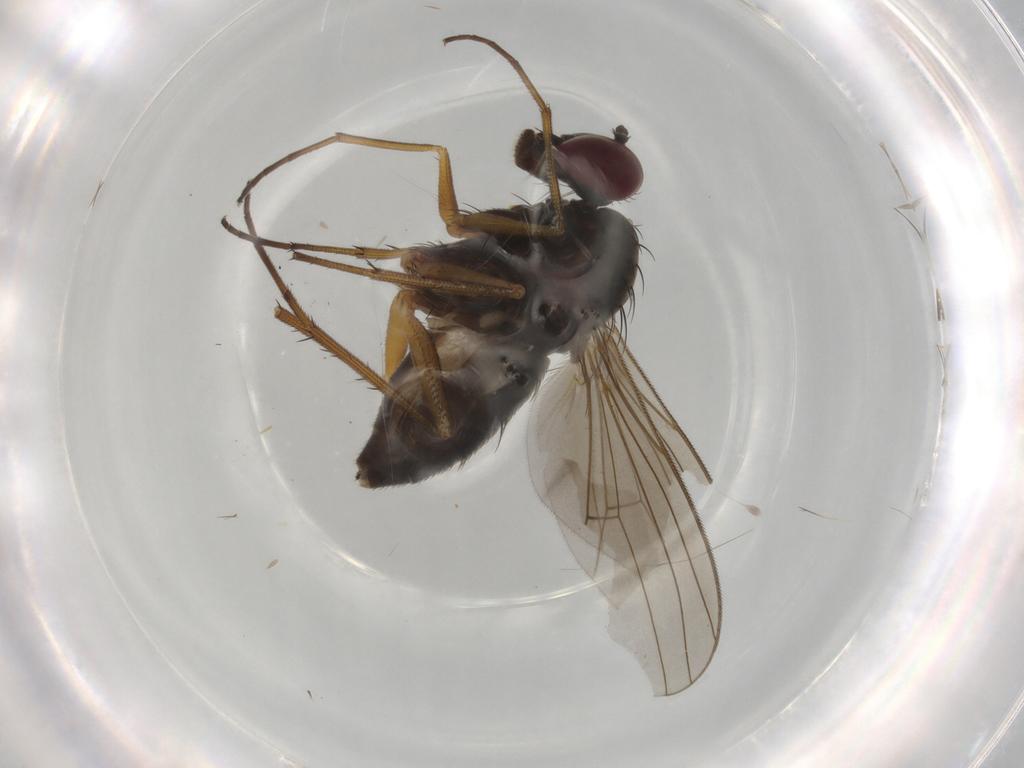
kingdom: Animalia
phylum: Arthropoda
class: Insecta
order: Diptera
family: Dolichopodidae
